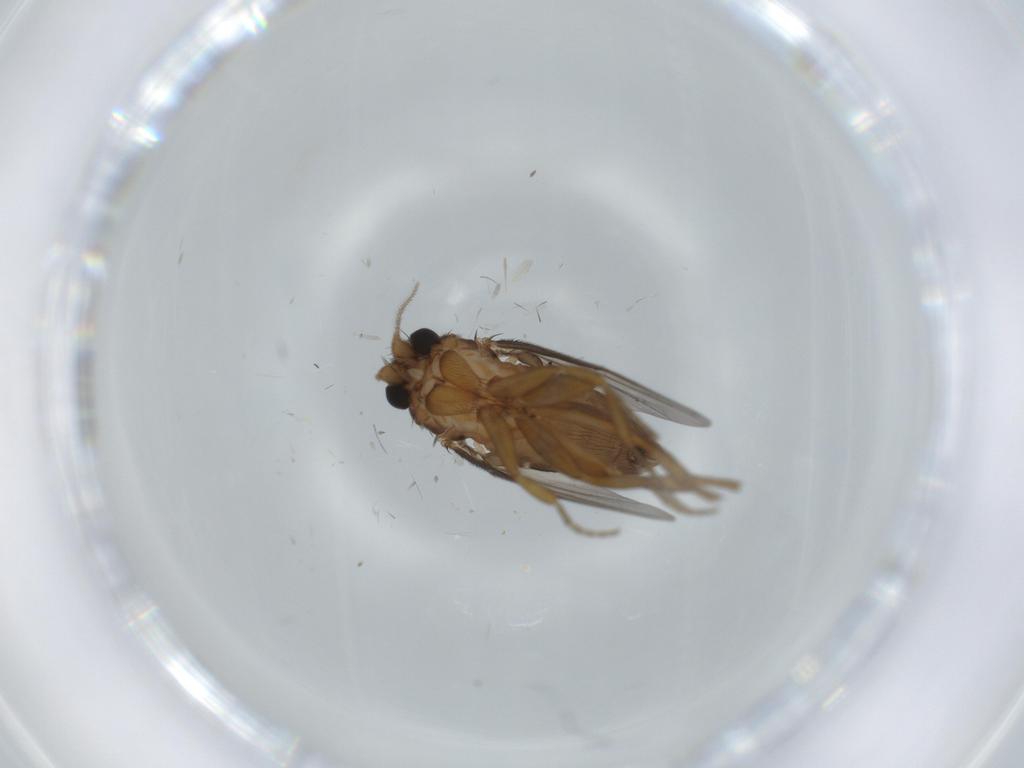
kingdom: Animalia
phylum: Arthropoda
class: Insecta
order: Diptera
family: Phoridae
